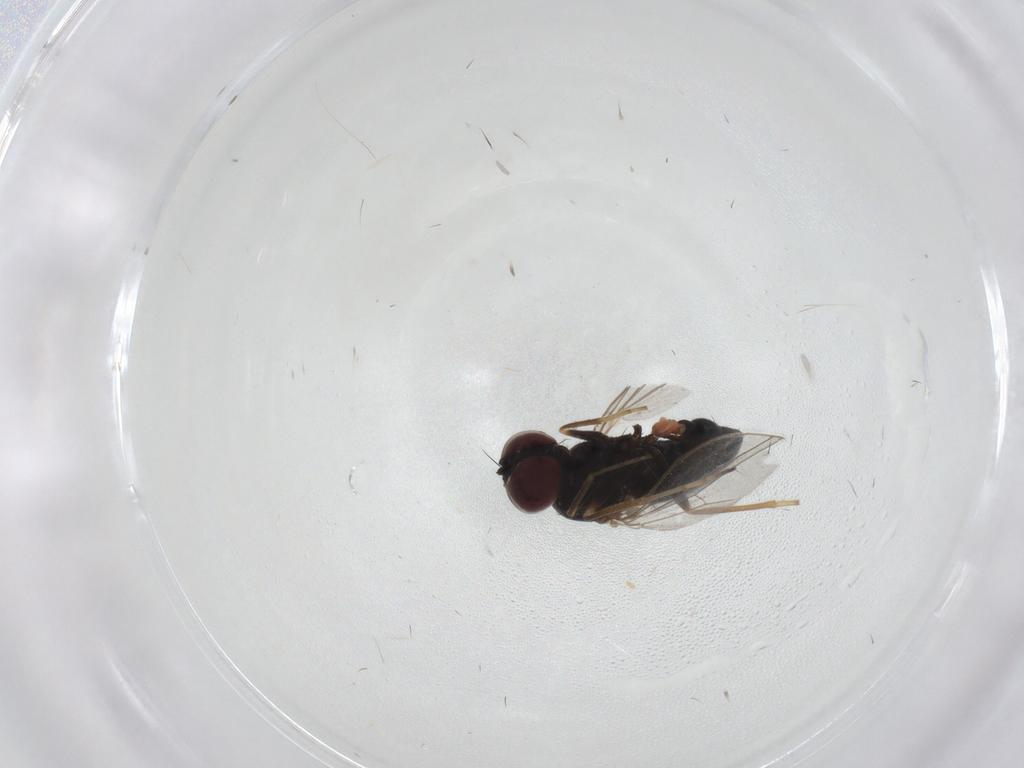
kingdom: Animalia
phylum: Arthropoda
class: Insecta
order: Diptera
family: Dolichopodidae
